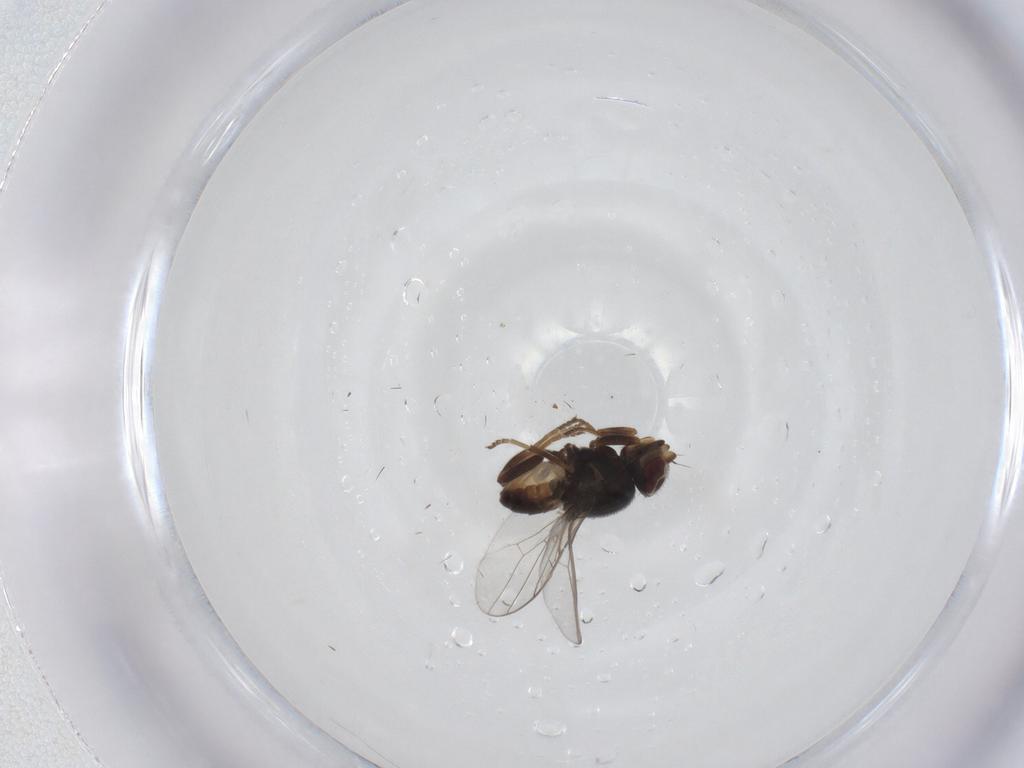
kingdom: Animalia
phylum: Arthropoda
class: Insecta
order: Diptera
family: Chloropidae
